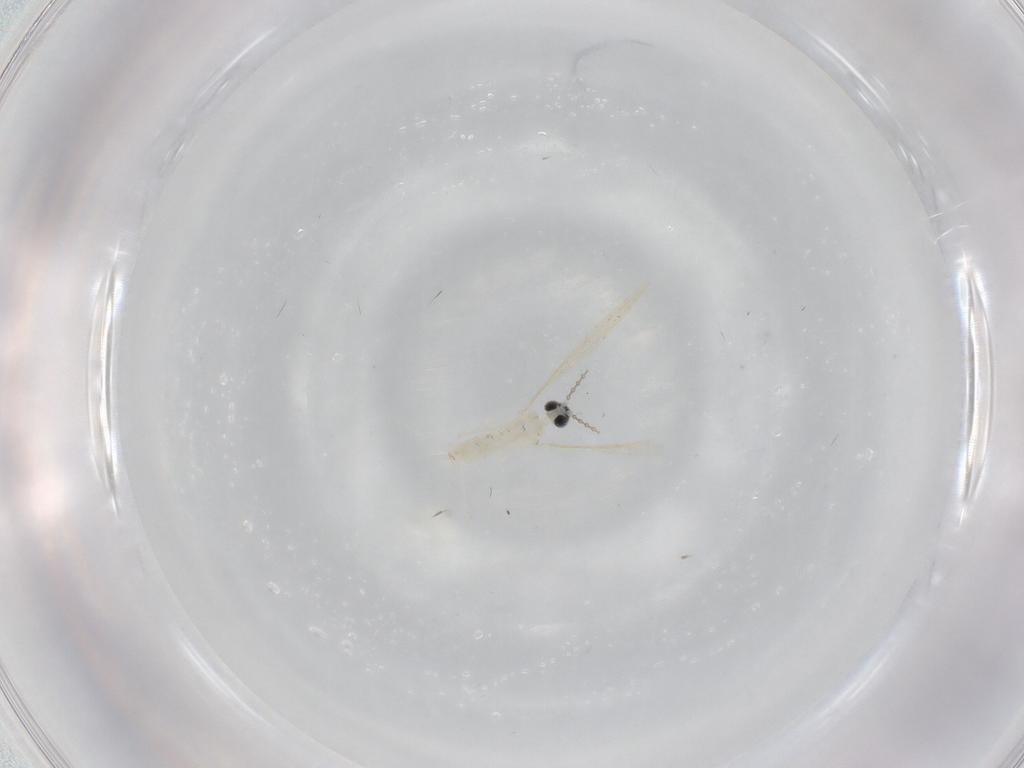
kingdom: Animalia
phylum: Arthropoda
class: Insecta
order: Diptera
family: Cecidomyiidae
